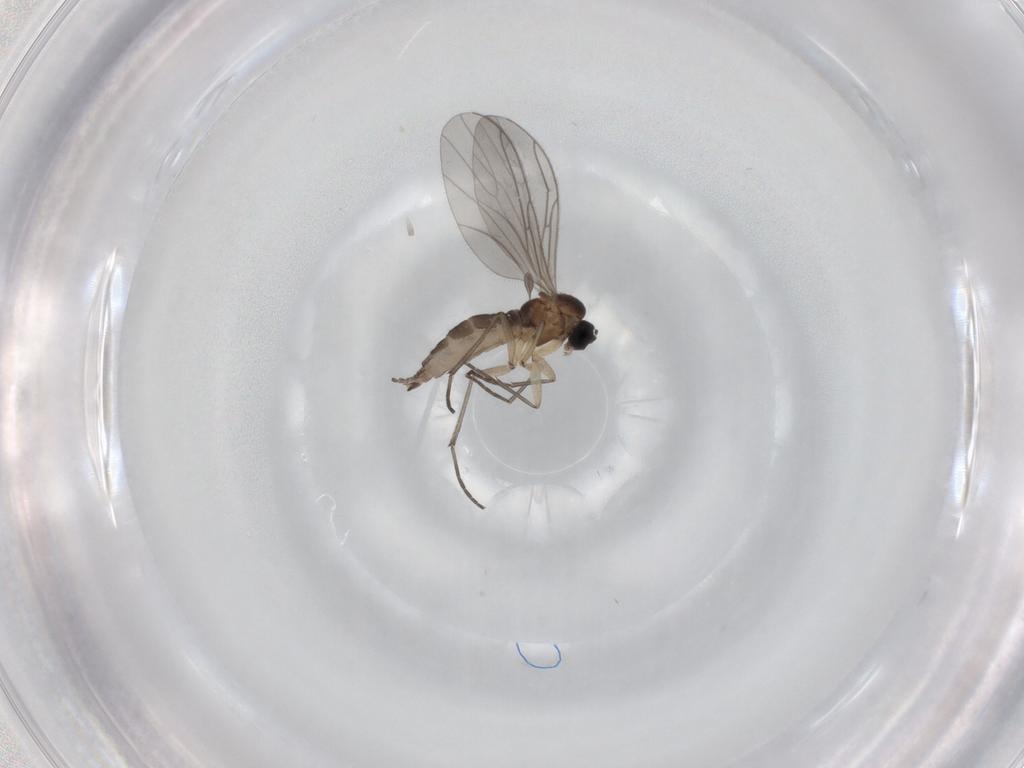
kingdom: Animalia
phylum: Arthropoda
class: Insecta
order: Diptera
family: Sciaridae
